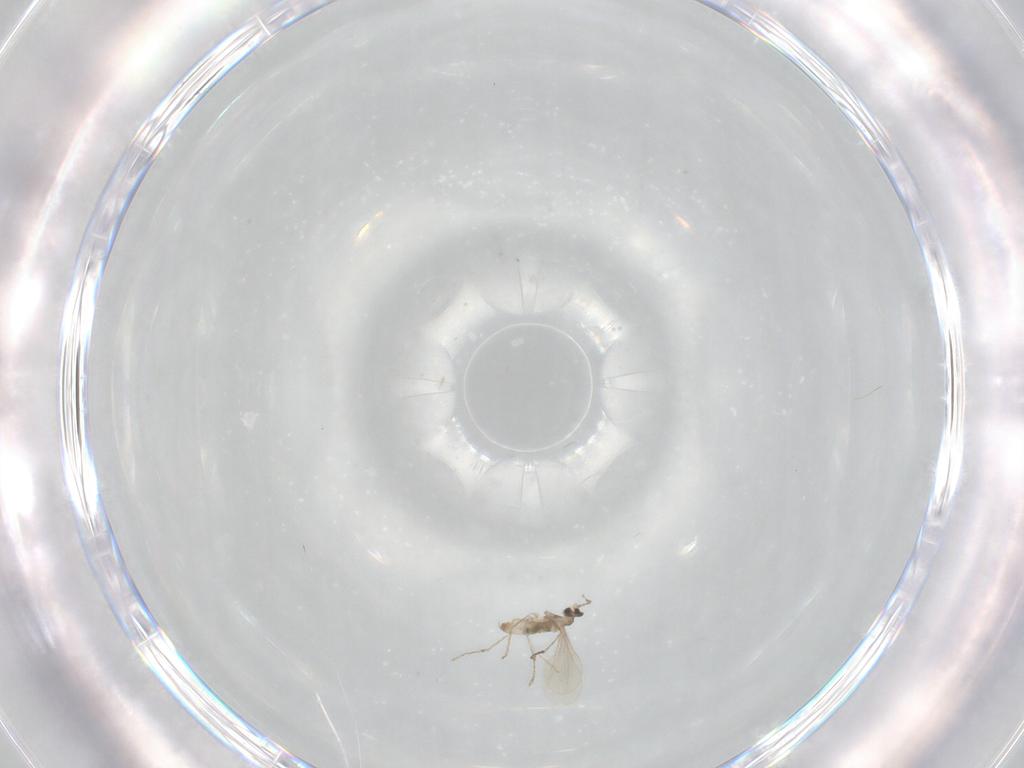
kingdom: Animalia
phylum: Arthropoda
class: Insecta
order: Diptera
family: Cecidomyiidae
